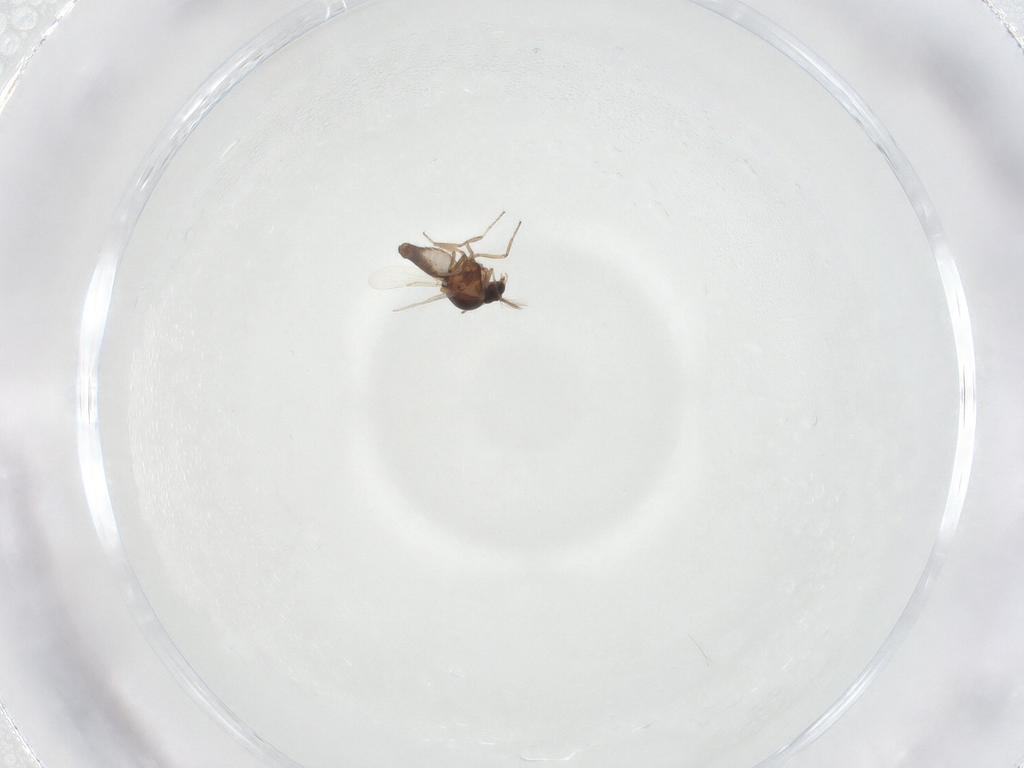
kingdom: Animalia
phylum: Arthropoda
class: Insecta
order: Diptera
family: Ceratopogonidae
